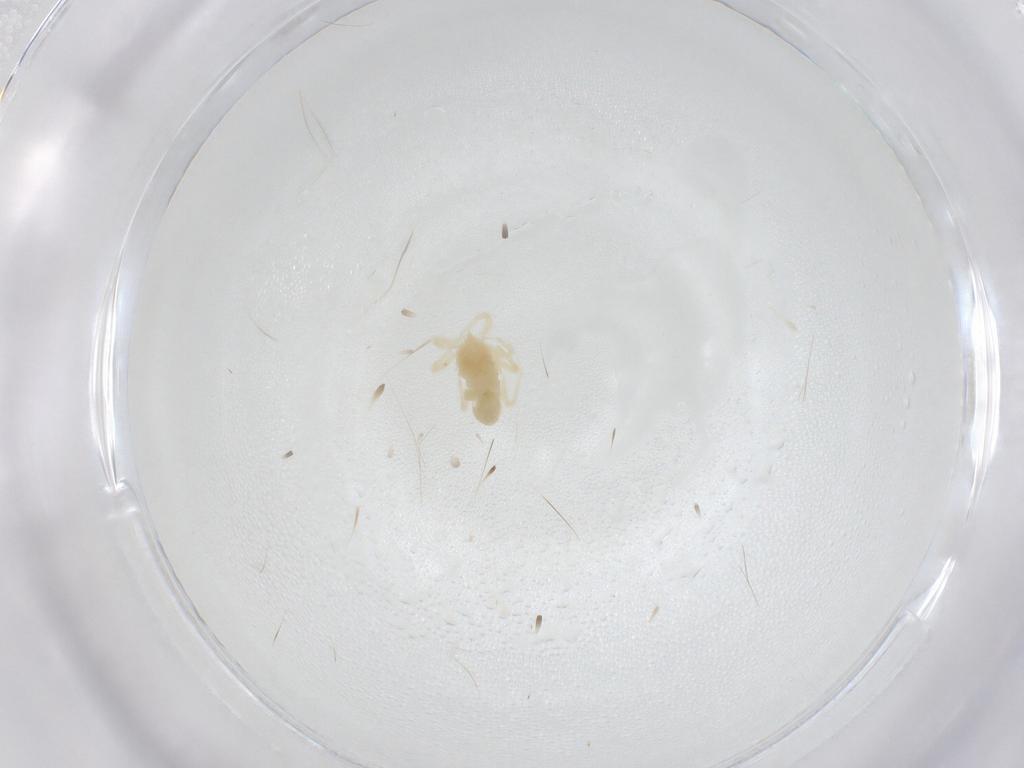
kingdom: Animalia
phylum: Arthropoda
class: Arachnida
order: Trombidiformes
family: Anystidae
